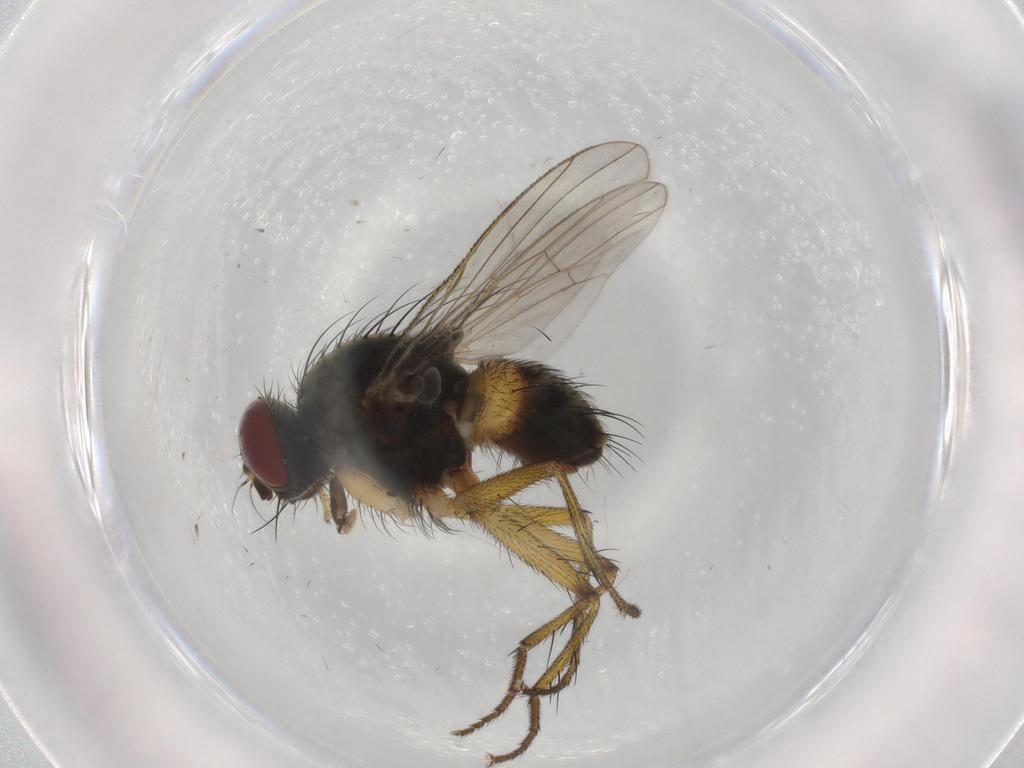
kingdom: Animalia
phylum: Arthropoda
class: Insecta
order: Diptera
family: Muscidae
